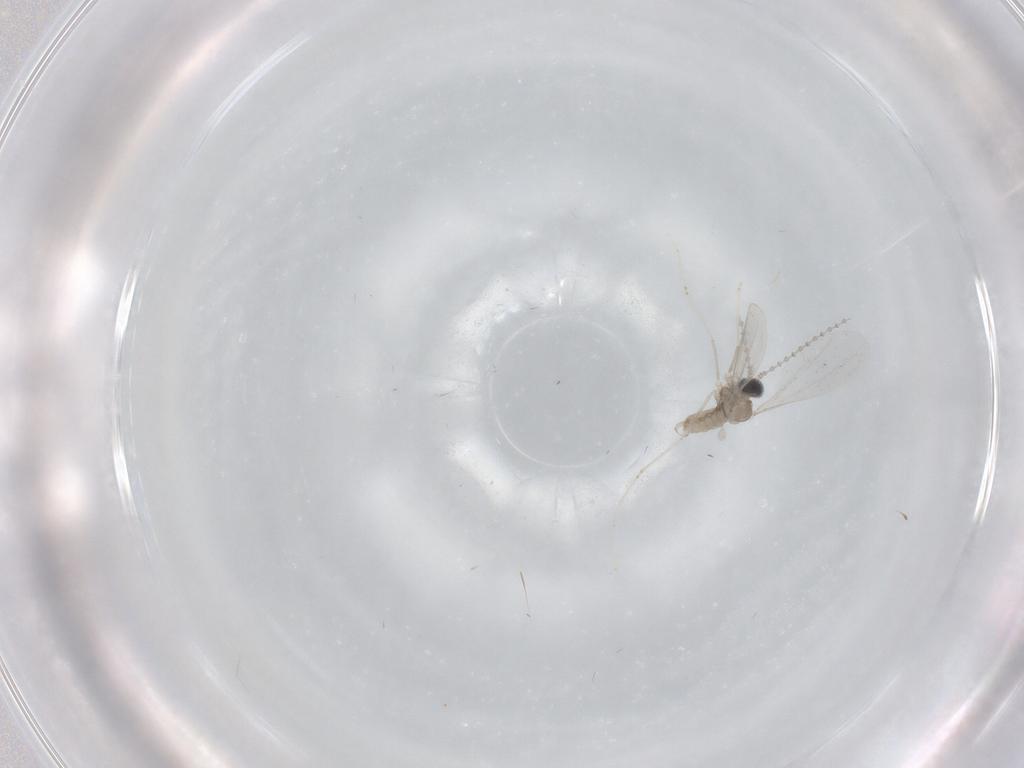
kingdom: Animalia
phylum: Arthropoda
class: Insecta
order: Diptera
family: Cecidomyiidae
